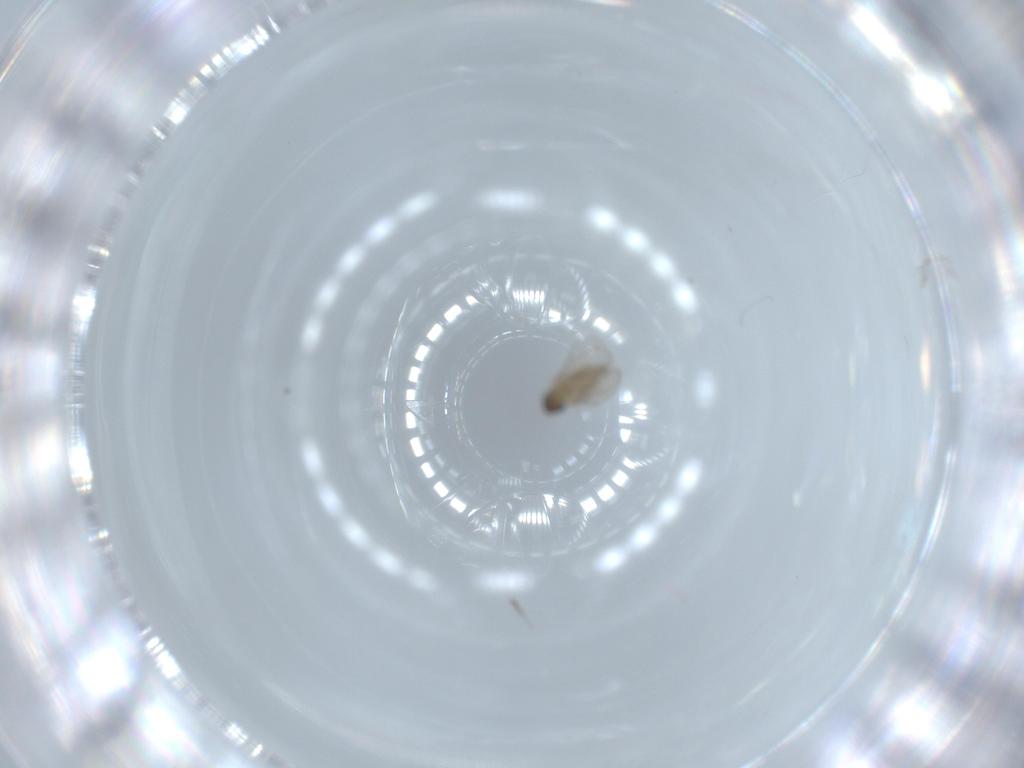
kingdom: Animalia
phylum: Arthropoda
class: Insecta
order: Diptera
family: Cecidomyiidae
